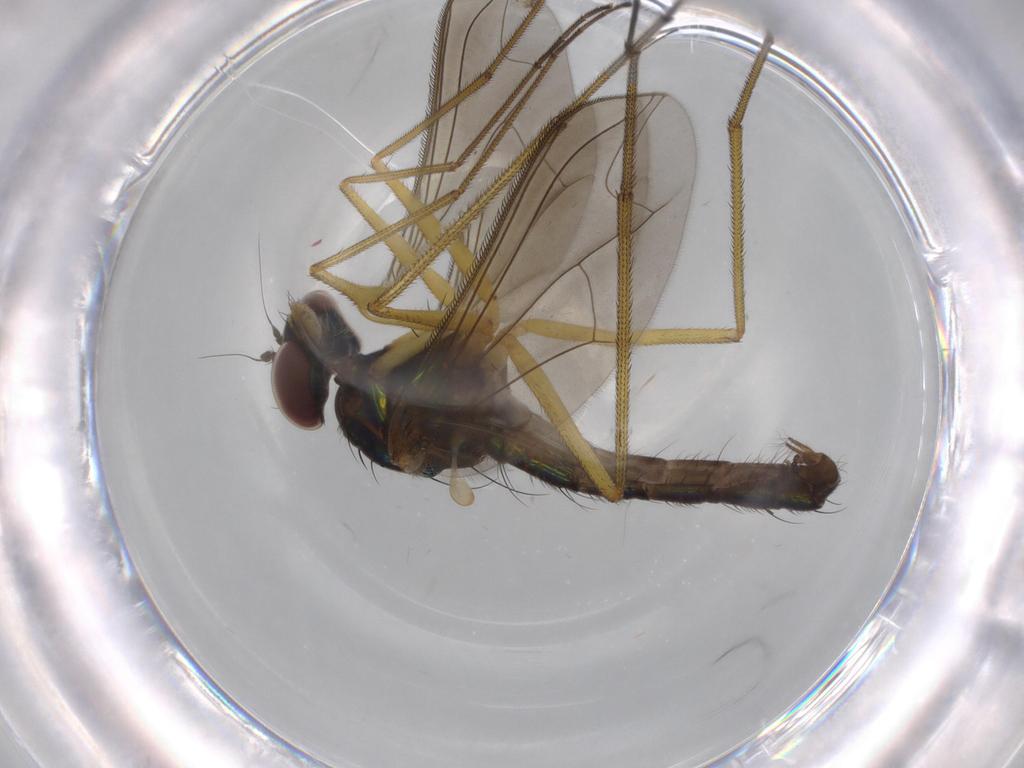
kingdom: Animalia
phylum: Arthropoda
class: Insecta
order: Diptera
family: Dolichopodidae
